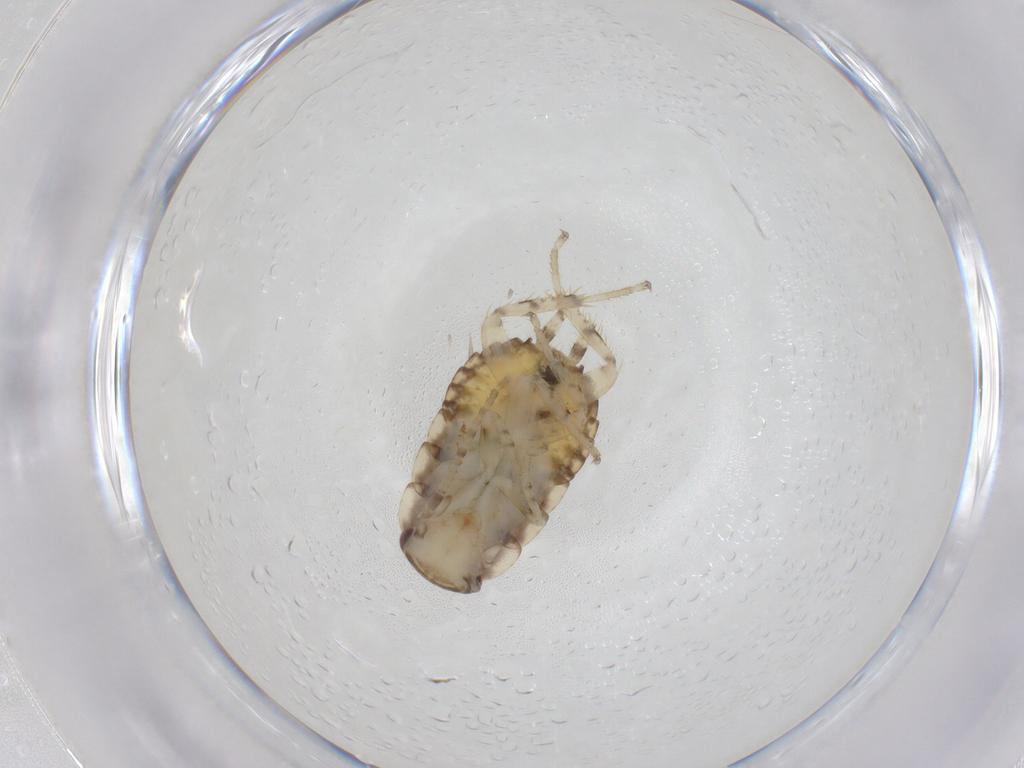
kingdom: Animalia
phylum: Arthropoda
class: Insecta
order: Blattodea
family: Ectobiidae
